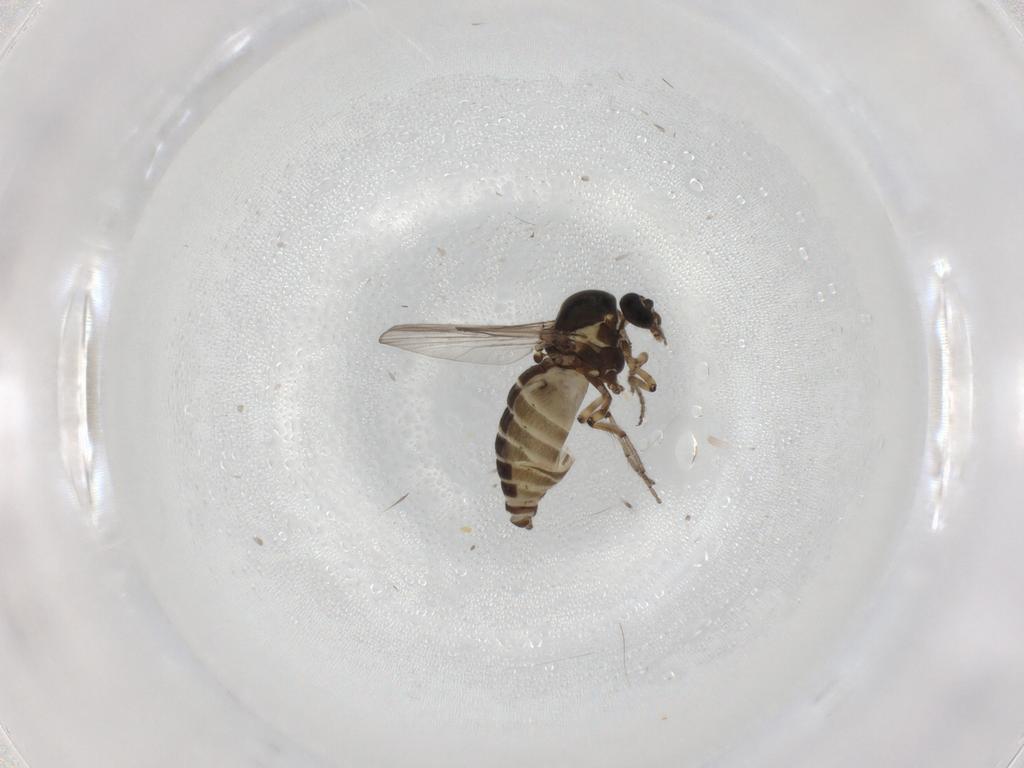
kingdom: Animalia
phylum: Arthropoda
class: Insecta
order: Diptera
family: Ceratopogonidae
